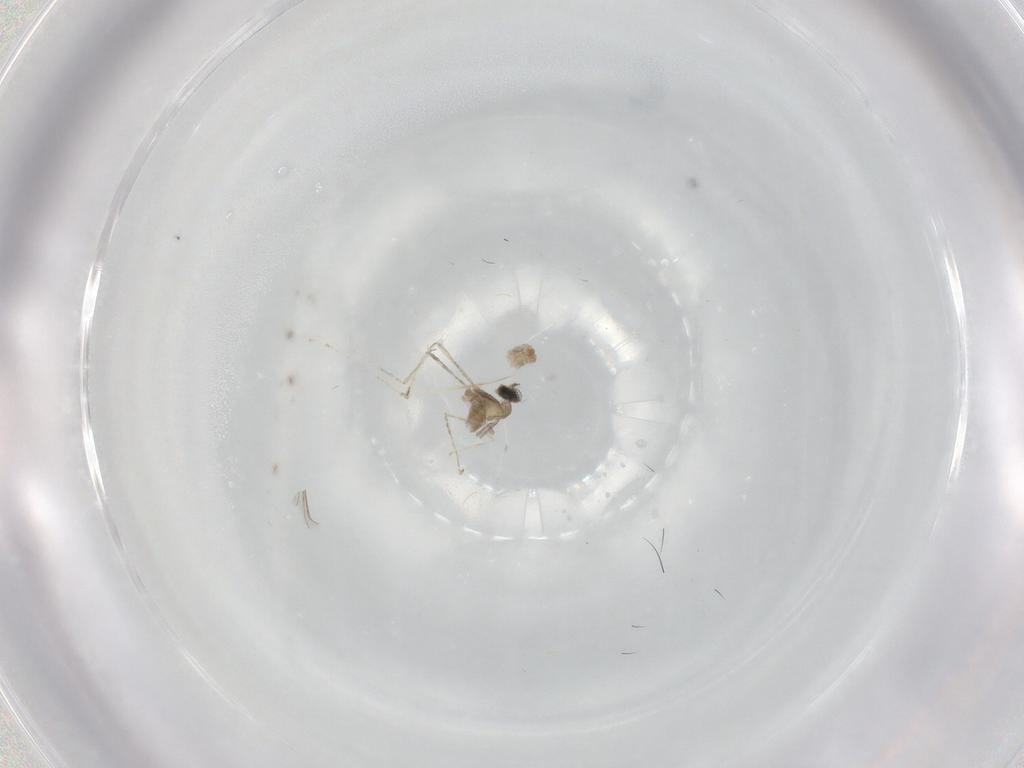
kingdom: Animalia
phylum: Arthropoda
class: Insecta
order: Diptera
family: Cecidomyiidae
